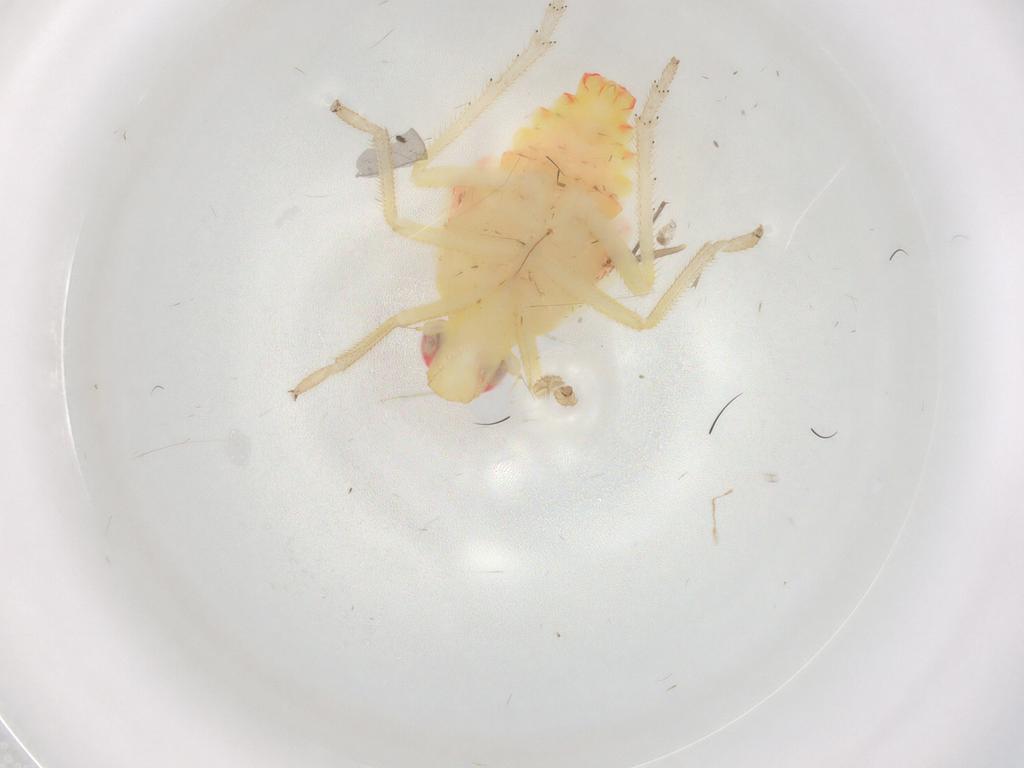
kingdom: Animalia
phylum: Arthropoda
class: Insecta
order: Hemiptera
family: Tropiduchidae
